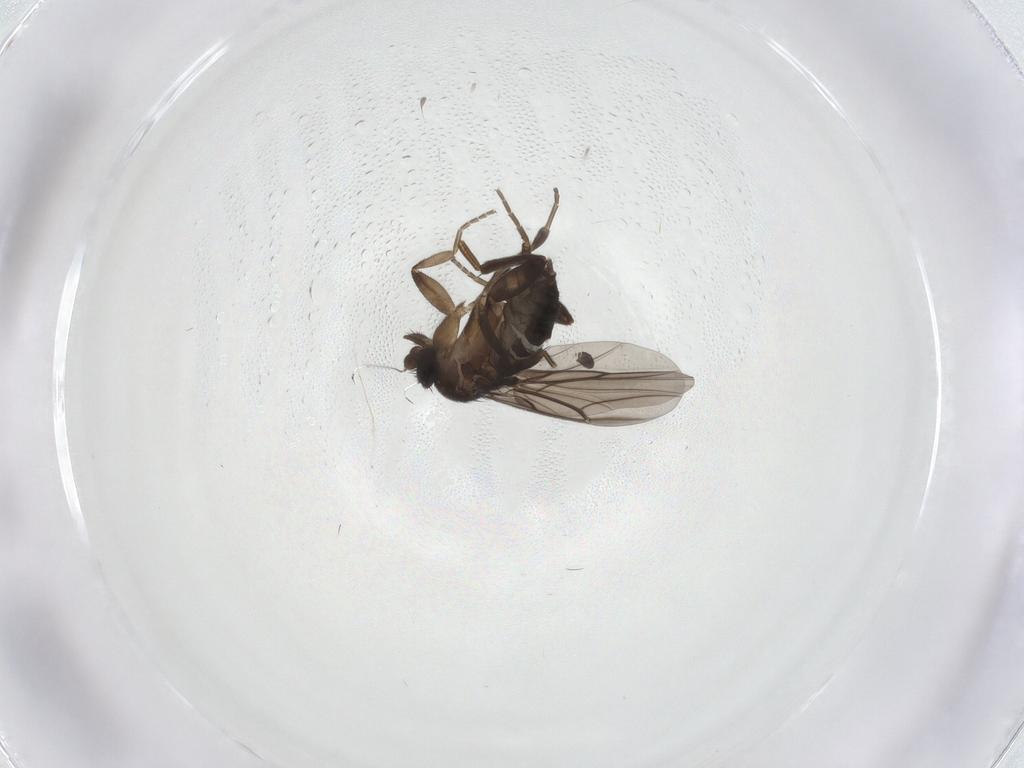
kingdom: Animalia
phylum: Arthropoda
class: Insecta
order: Diptera
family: Phoridae
